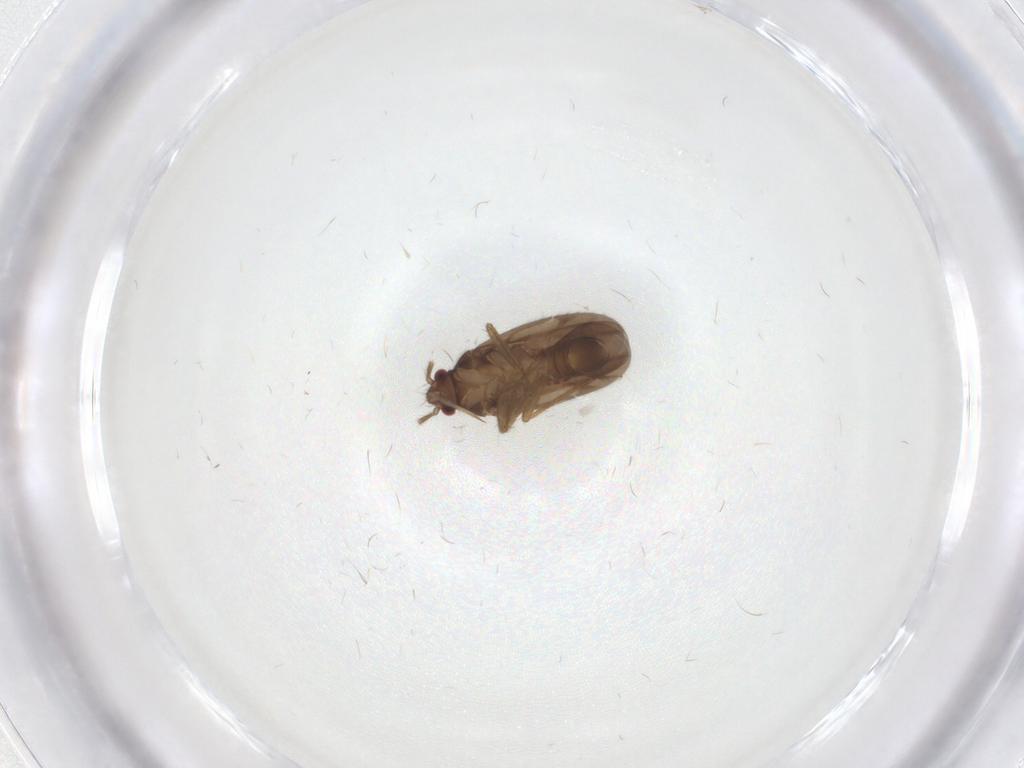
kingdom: Animalia
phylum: Arthropoda
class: Insecta
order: Hemiptera
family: Ceratocombidae
